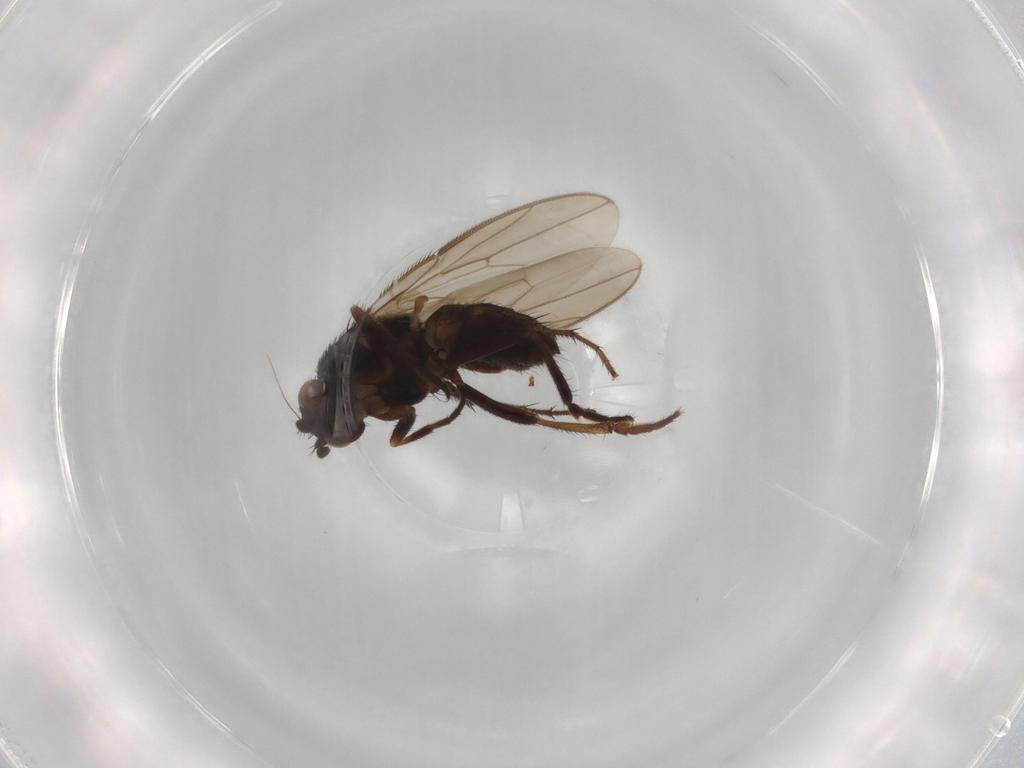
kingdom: Animalia
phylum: Arthropoda
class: Insecta
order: Diptera
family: Sphaeroceridae
